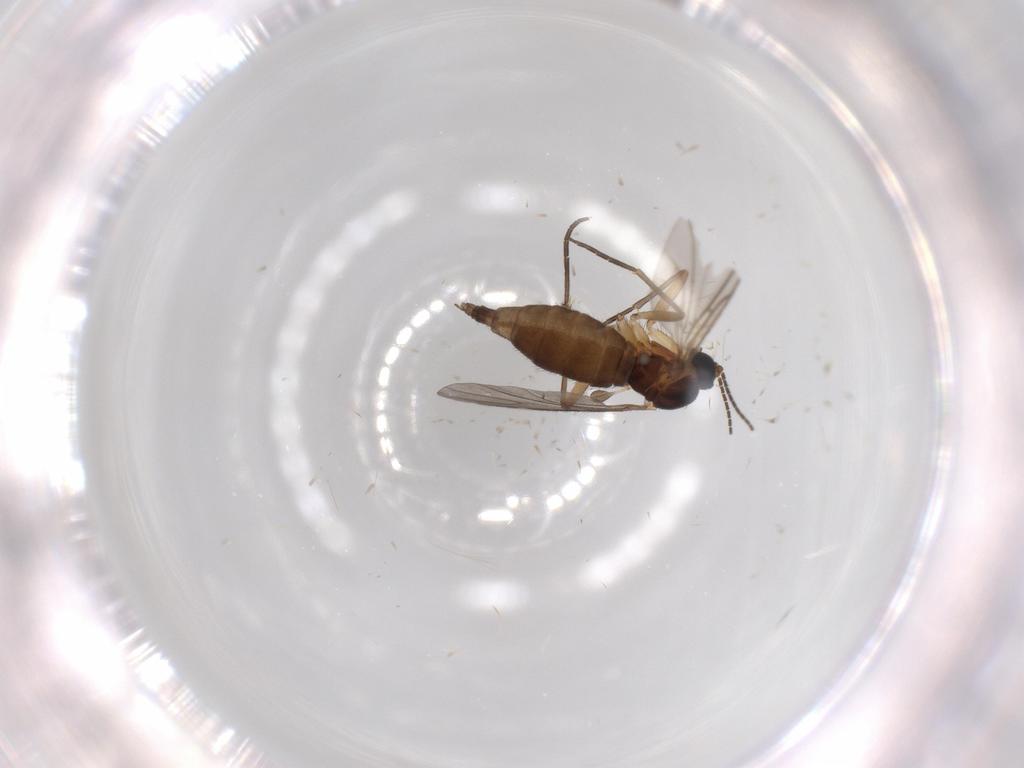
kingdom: Animalia
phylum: Arthropoda
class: Insecta
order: Diptera
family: Sciaridae
